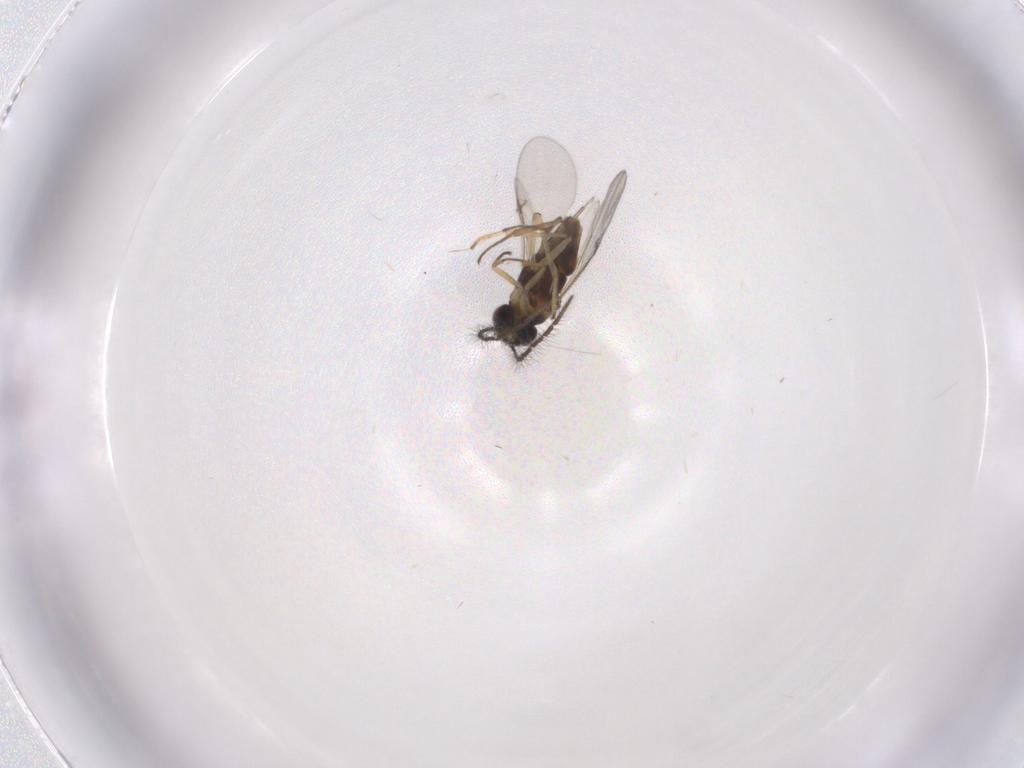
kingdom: Animalia
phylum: Arthropoda
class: Insecta
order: Hymenoptera
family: Encyrtidae
